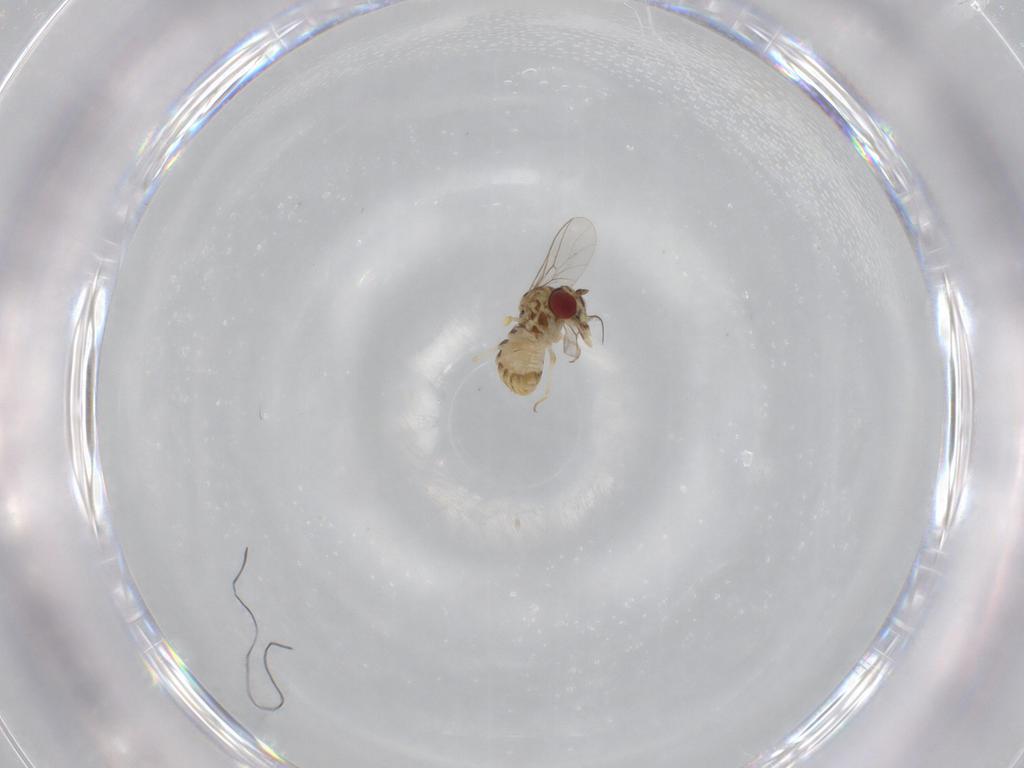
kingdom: Animalia
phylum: Arthropoda
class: Insecta
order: Diptera
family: Bombyliidae
